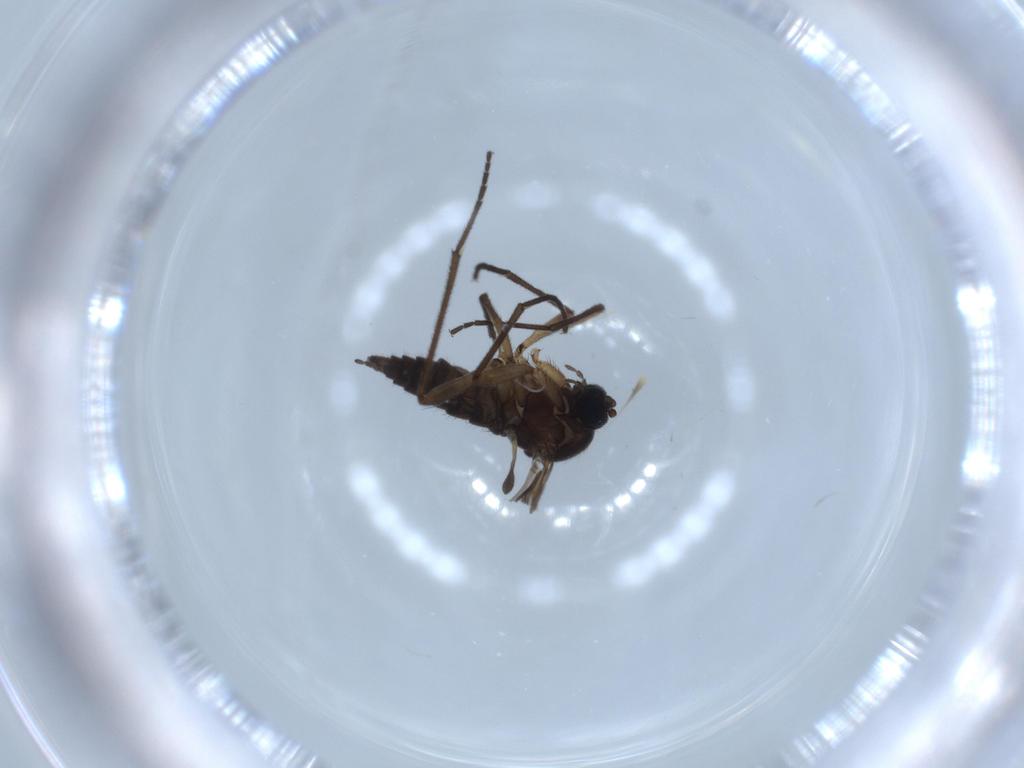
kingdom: Animalia
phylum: Arthropoda
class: Insecta
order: Diptera
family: Sciaridae
